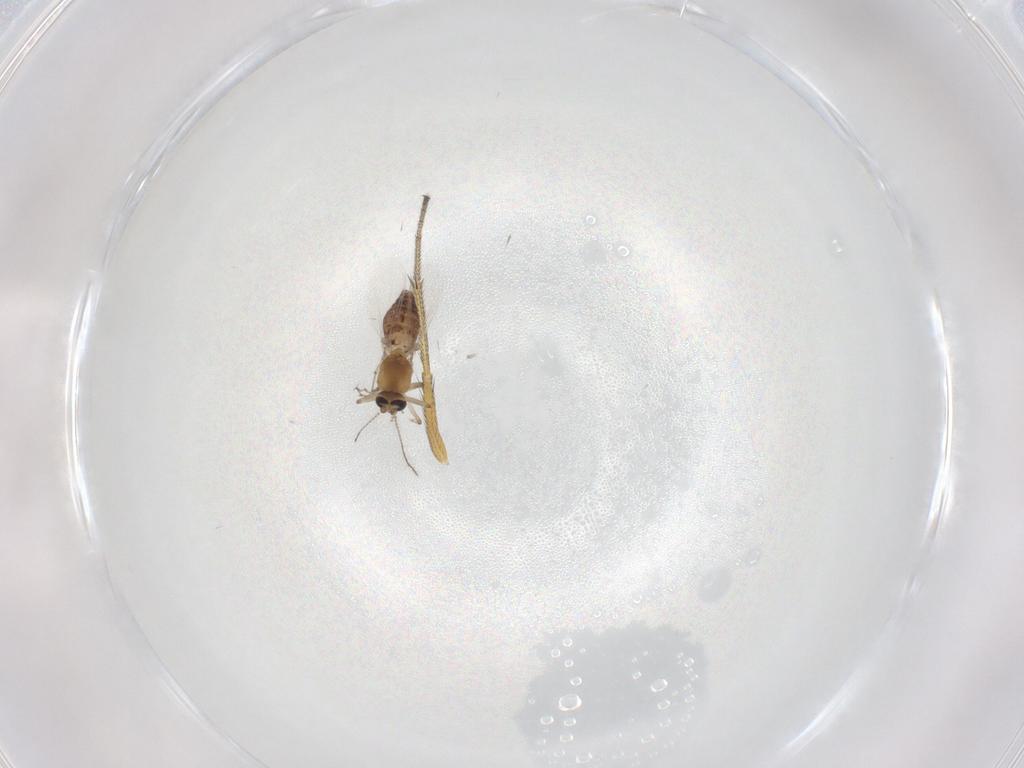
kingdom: Animalia
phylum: Arthropoda
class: Insecta
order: Diptera
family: Ceratopogonidae
